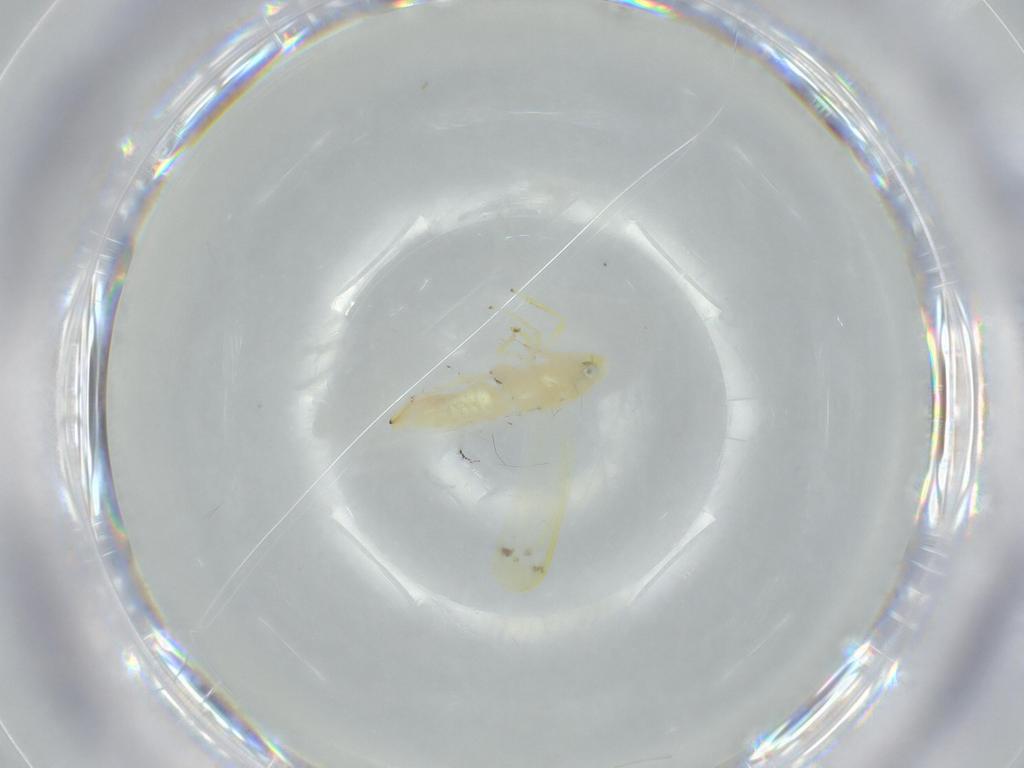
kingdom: Animalia
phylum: Arthropoda
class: Insecta
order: Hemiptera
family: Cicadellidae
